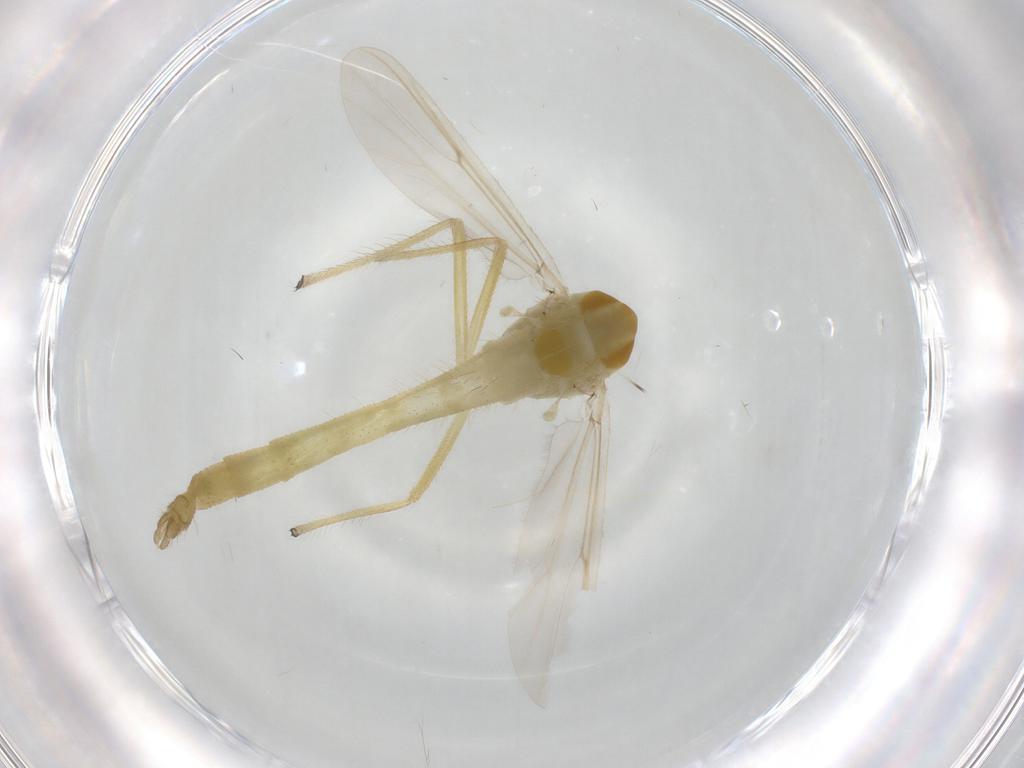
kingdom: Animalia
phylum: Arthropoda
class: Insecta
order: Diptera
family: Chironomidae
